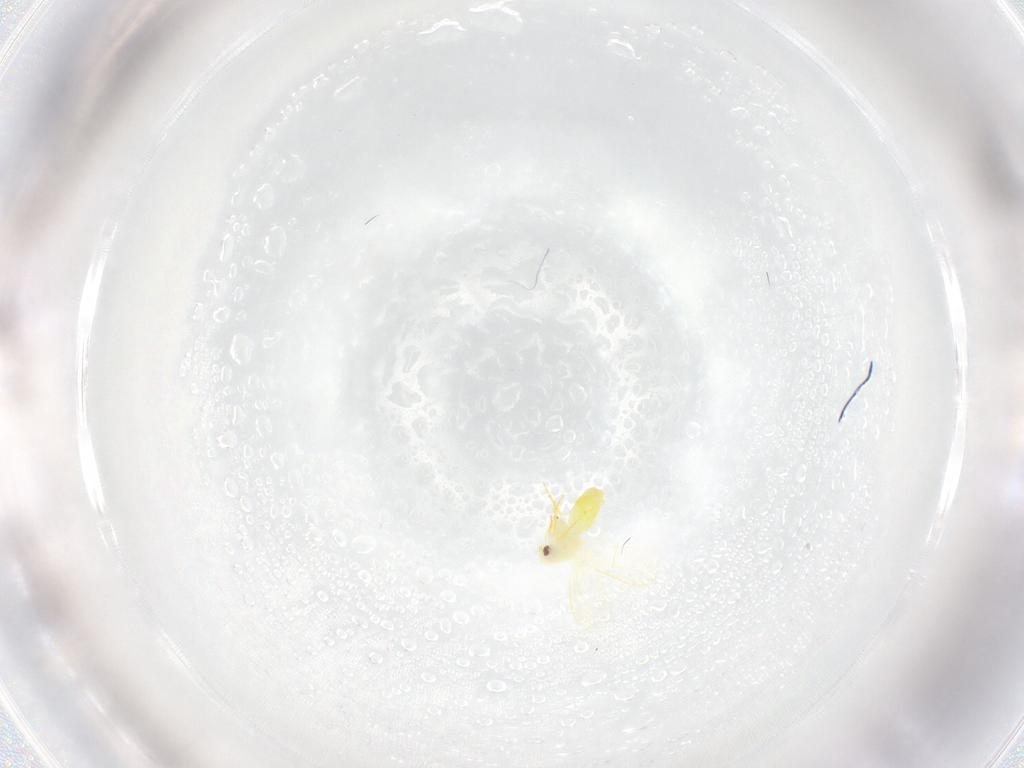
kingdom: Animalia
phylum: Arthropoda
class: Insecta
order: Hemiptera
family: Aleyrodidae
